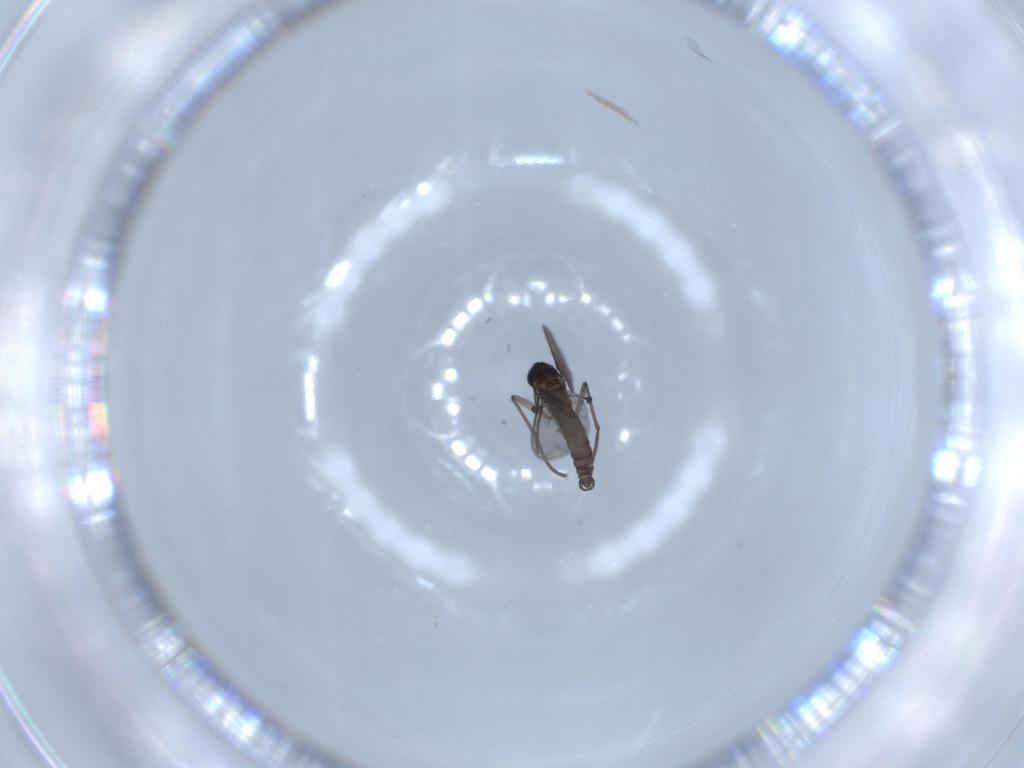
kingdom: Animalia
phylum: Arthropoda
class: Insecta
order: Diptera
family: Sciaridae
